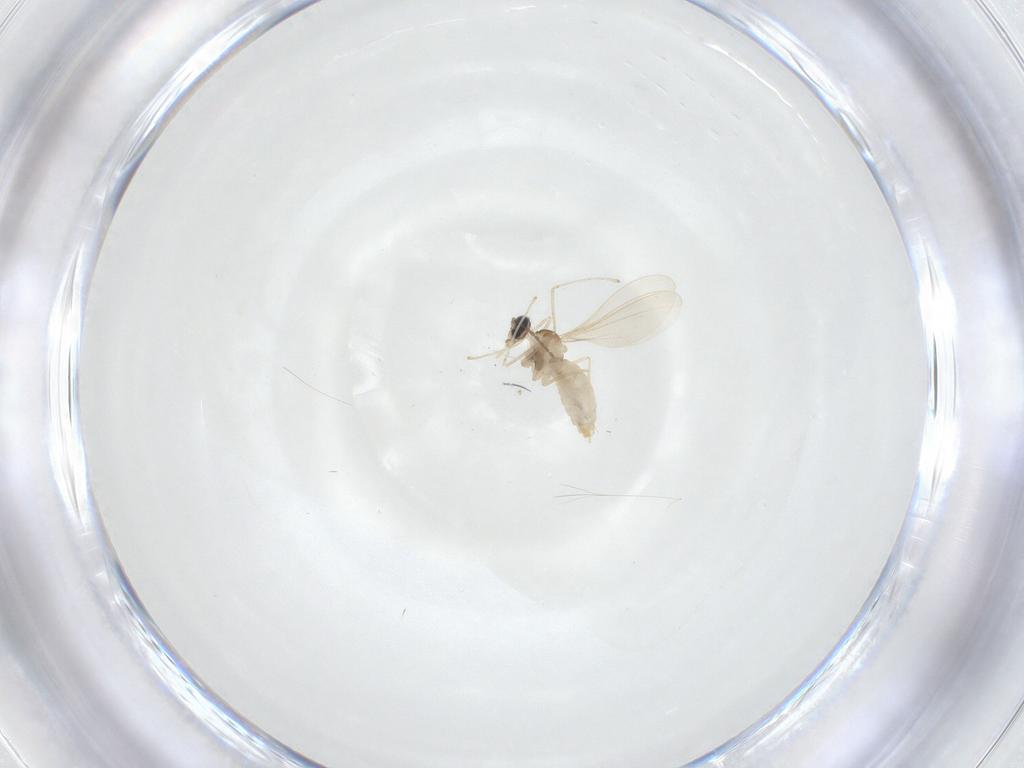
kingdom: Animalia
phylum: Arthropoda
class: Insecta
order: Diptera
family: Cecidomyiidae
